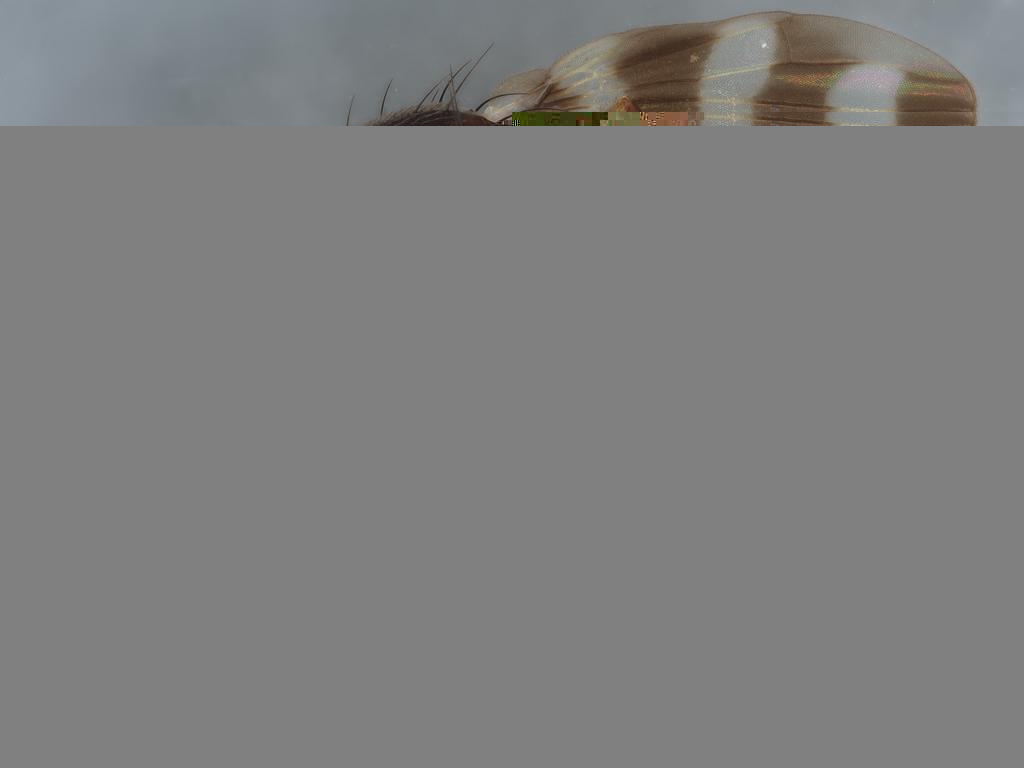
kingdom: Animalia
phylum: Arthropoda
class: Insecta
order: Diptera
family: Ulidiidae
